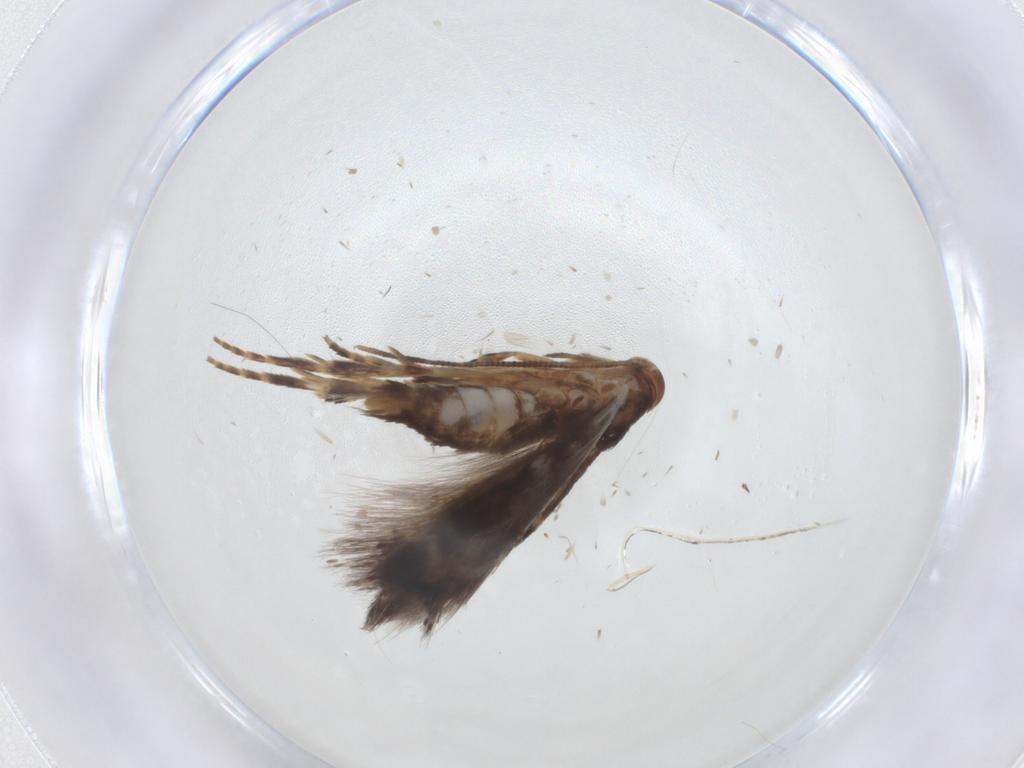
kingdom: Animalia
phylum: Arthropoda
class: Insecta
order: Lepidoptera
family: Elachistidae
